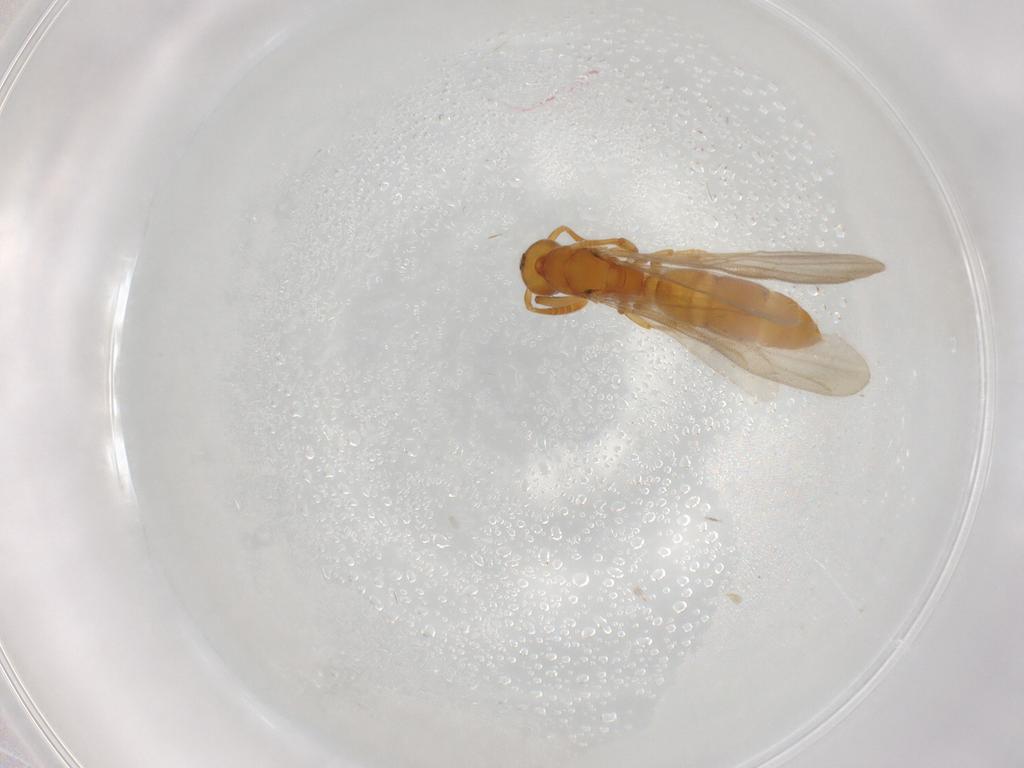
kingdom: Animalia
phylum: Arthropoda
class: Insecta
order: Hymenoptera
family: Formicidae
